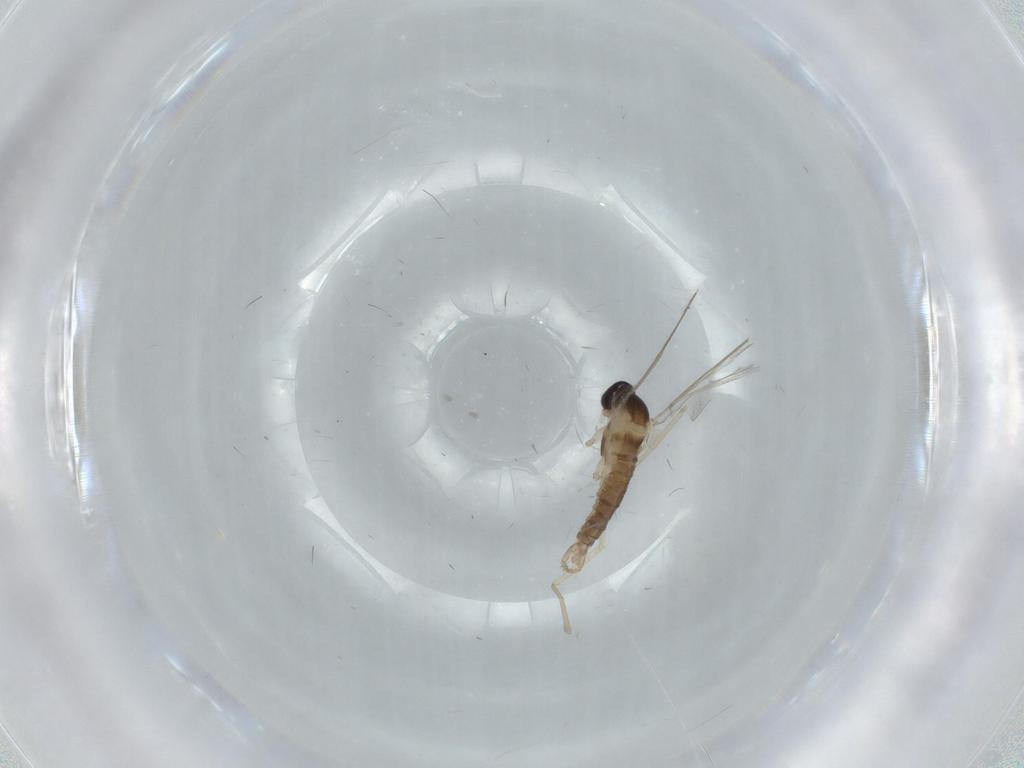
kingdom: Animalia
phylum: Arthropoda
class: Insecta
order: Diptera
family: Cecidomyiidae
